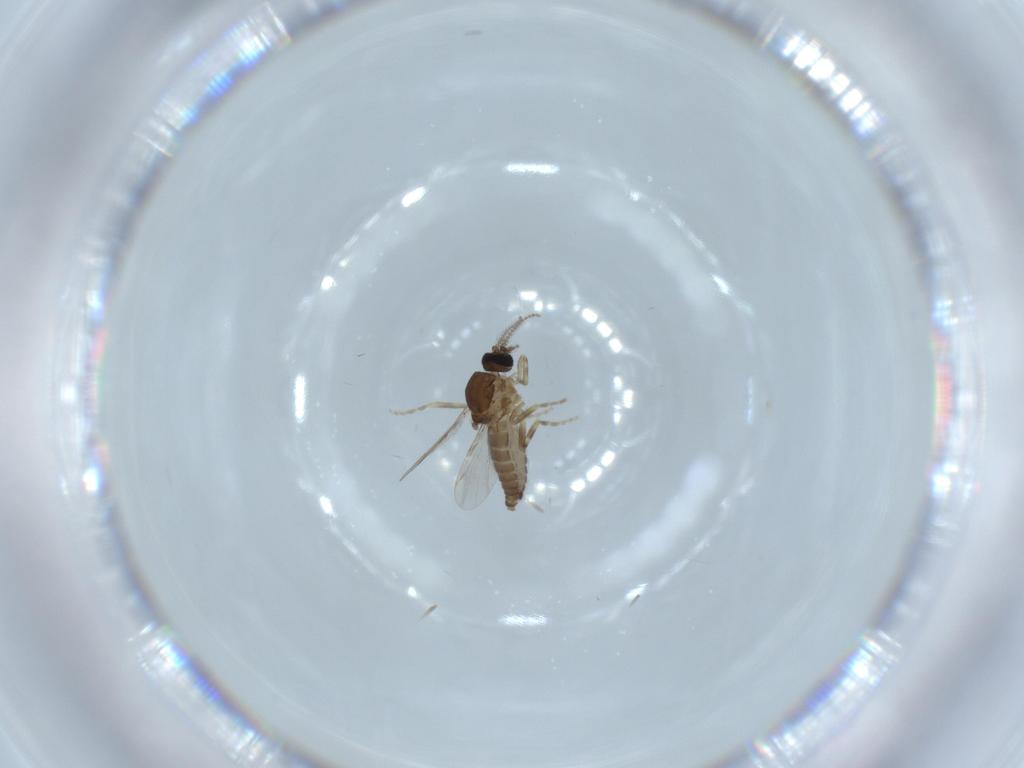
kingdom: Animalia
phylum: Arthropoda
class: Insecta
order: Diptera
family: Ceratopogonidae
